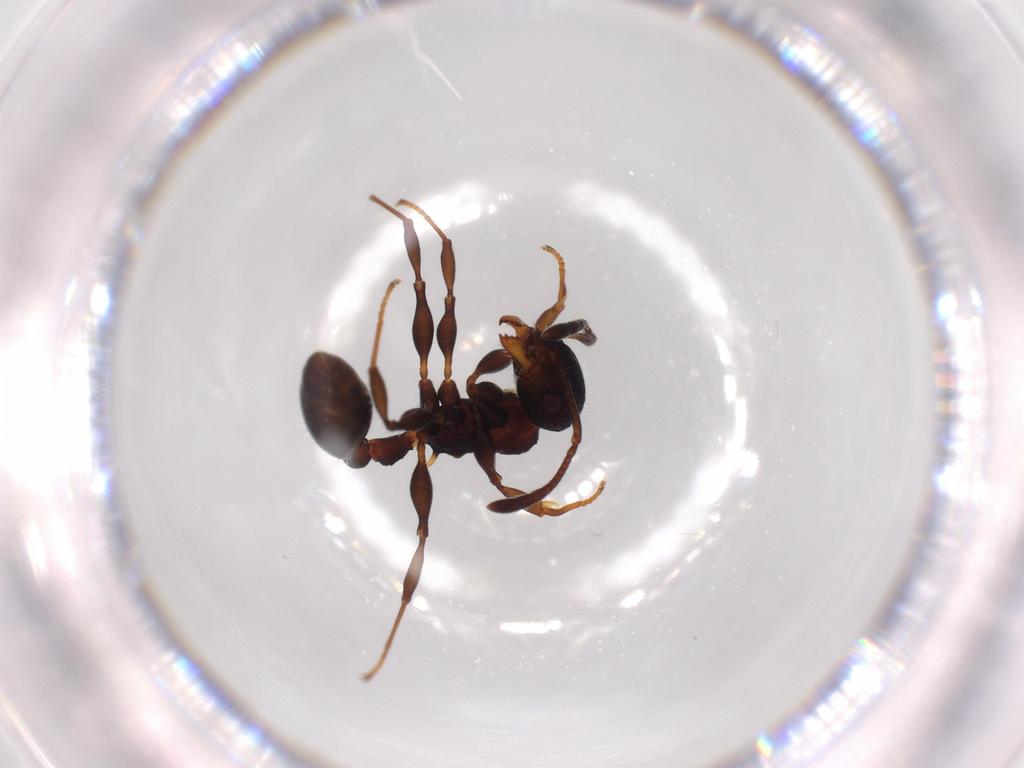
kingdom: Animalia
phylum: Arthropoda
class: Insecta
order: Hymenoptera
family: Formicidae
